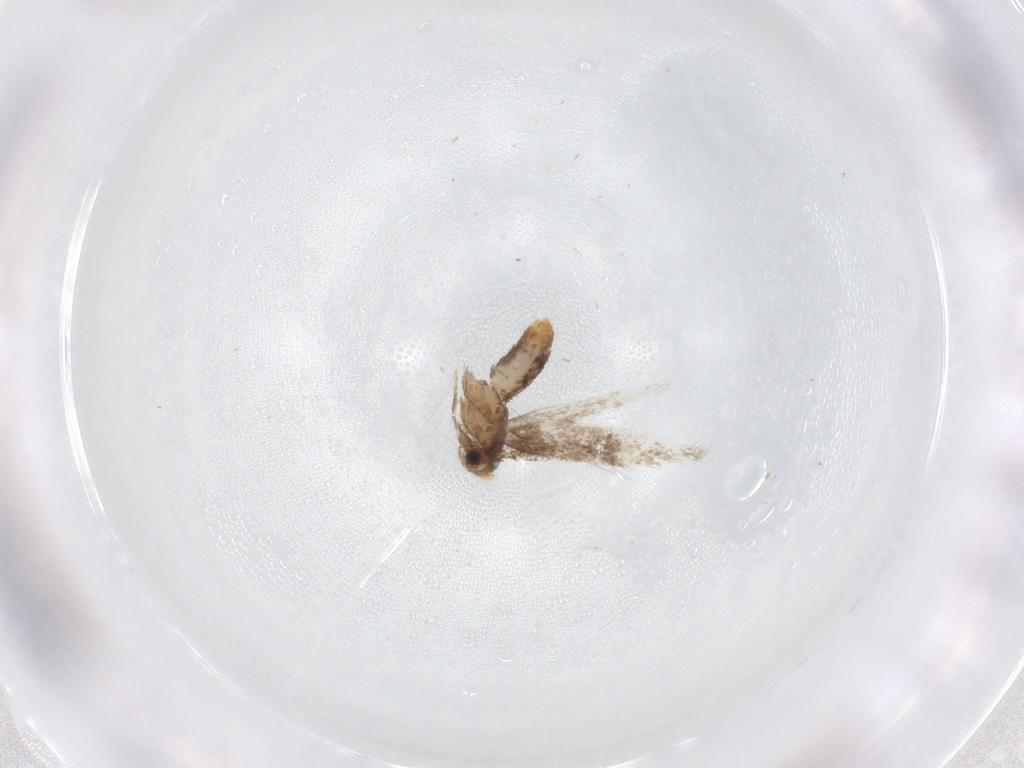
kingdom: Animalia
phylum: Arthropoda
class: Insecta
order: Lepidoptera
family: Nepticulidae
